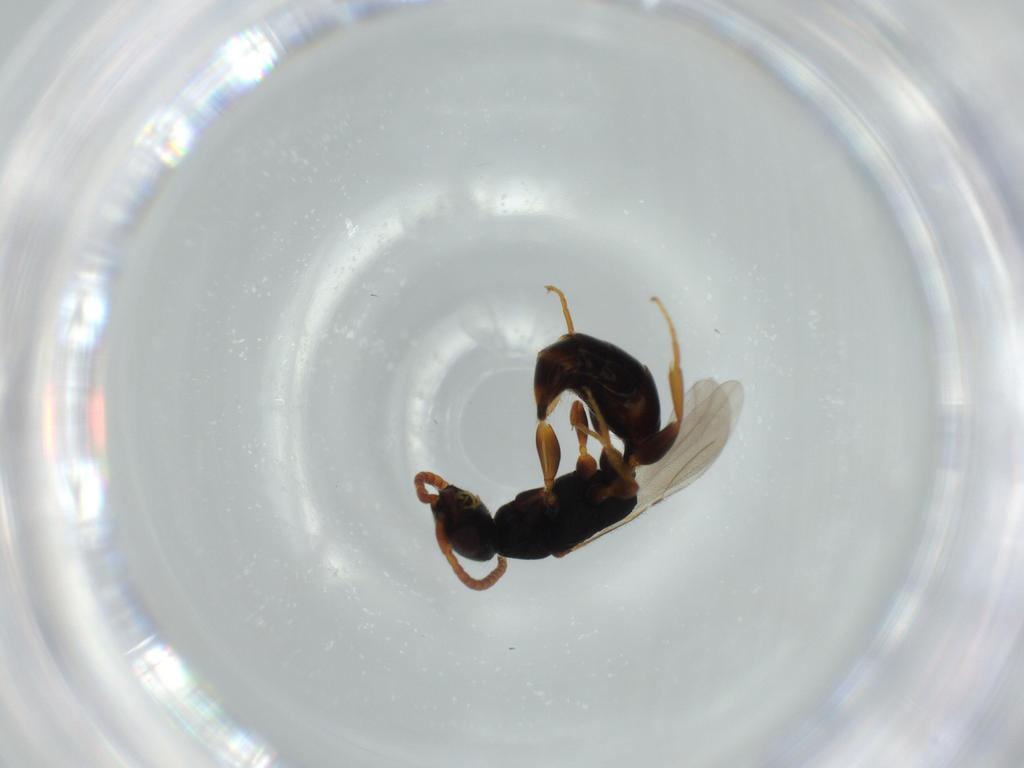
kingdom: Animalia
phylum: Arthropoda
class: Insecta
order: Hymenoptera
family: Bethylidae
